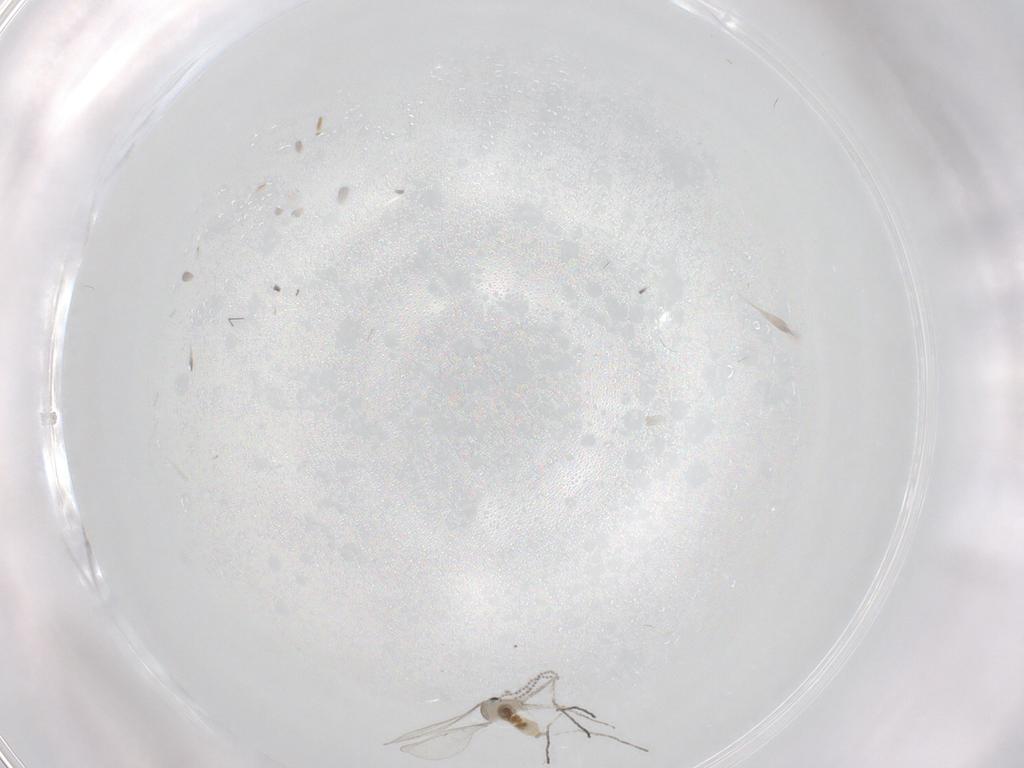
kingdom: Animalia
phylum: Arthropoda
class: Insecta
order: Diptera
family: Cecidomyiidae
